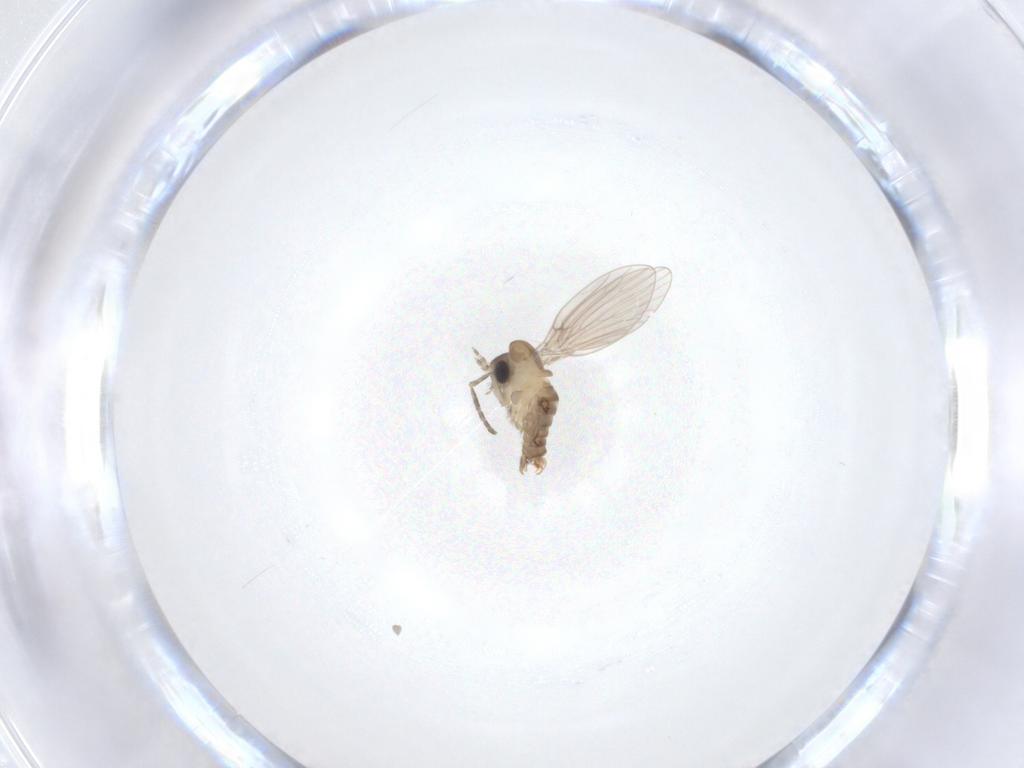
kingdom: Animalia
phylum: Arthropoda
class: Insecta
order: Diptera
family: Psychodidae
